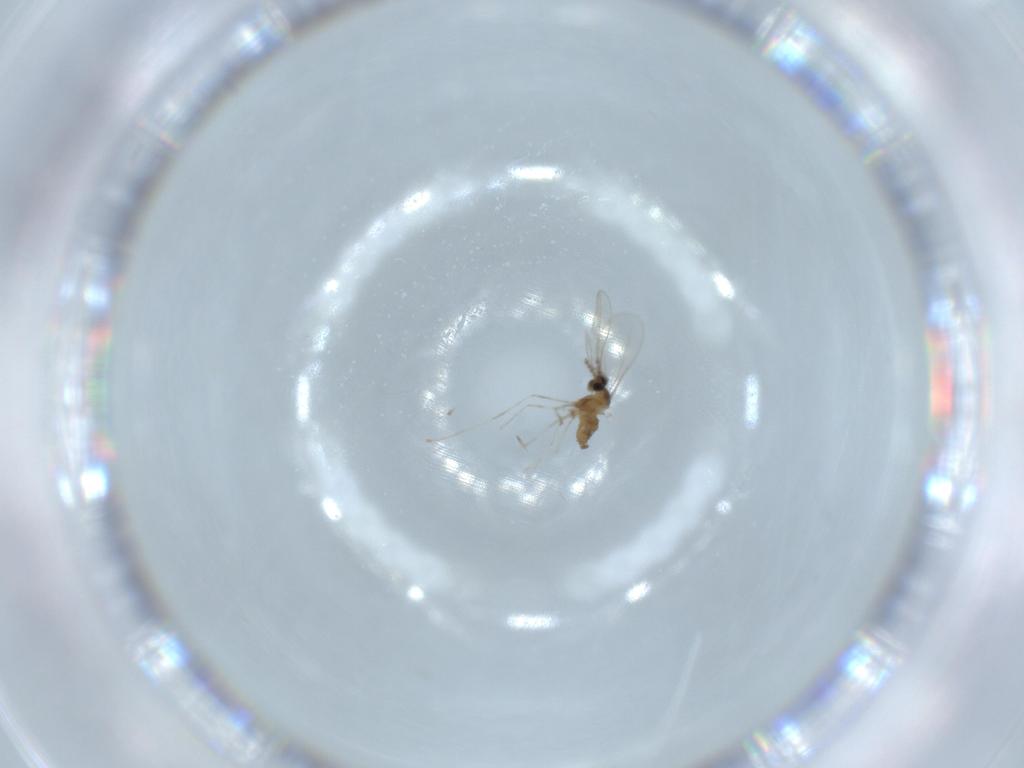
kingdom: Animalia
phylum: Arthropoda
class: Insecta
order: Diptera
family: Cecidomyiidae
